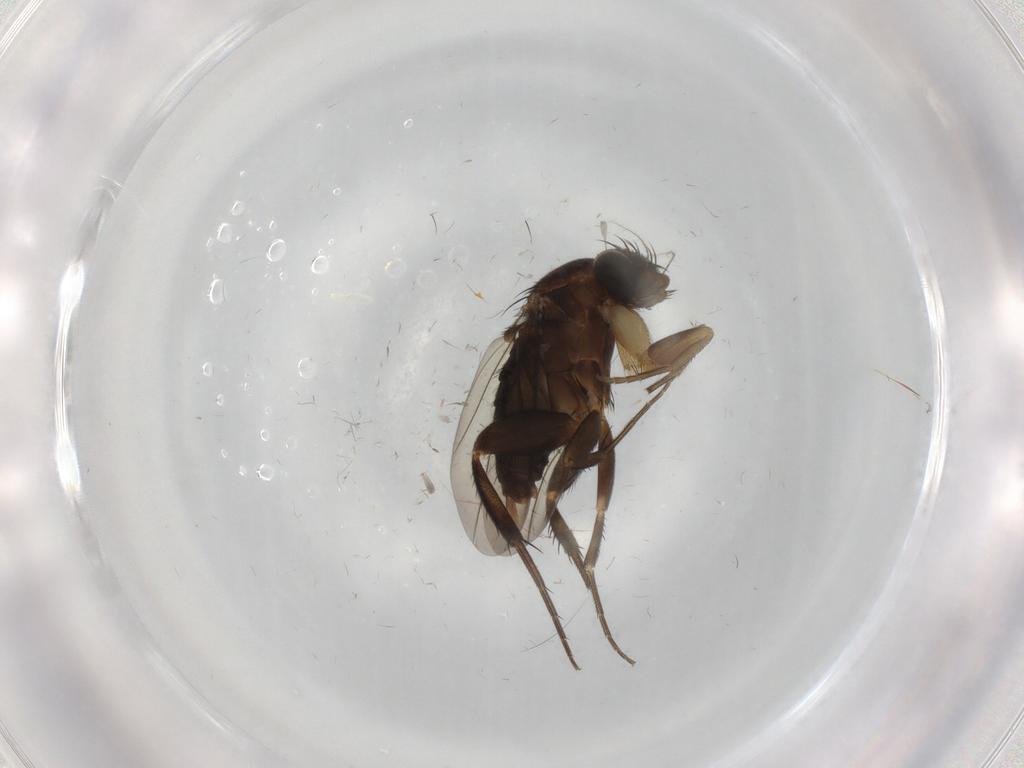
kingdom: Animalia
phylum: Arthropoda
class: Insecta
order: Diptera
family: Phoridae
